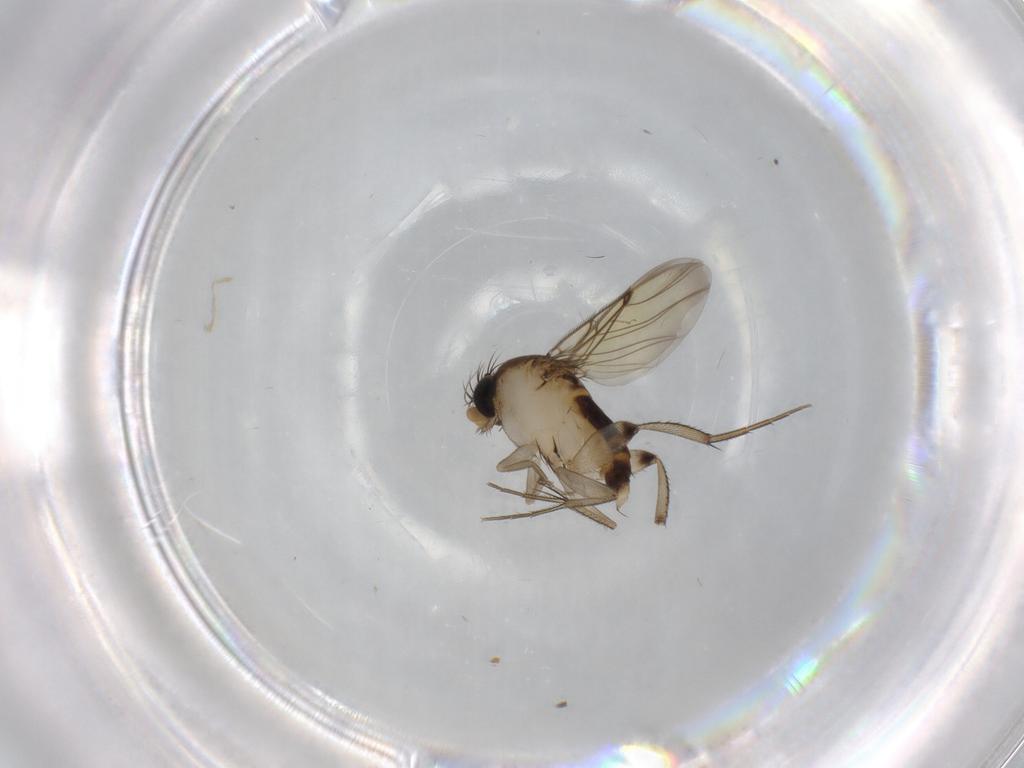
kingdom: Animalia
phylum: Arthropoda
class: Insecta
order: Diptera
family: Phoridae
